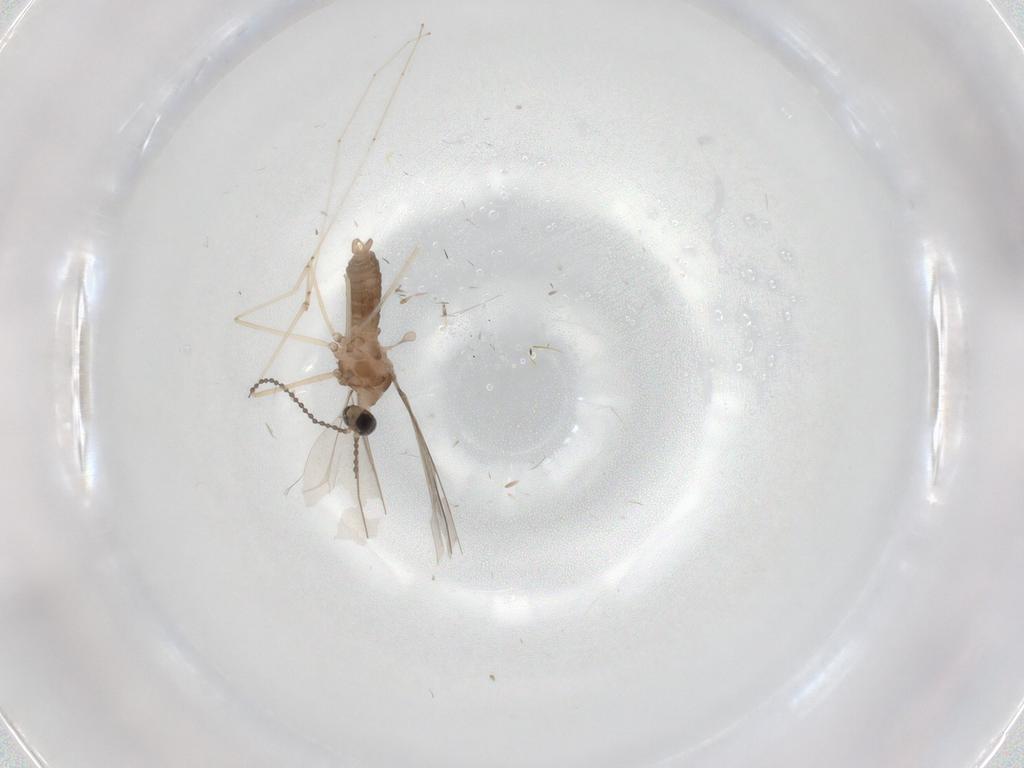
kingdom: Animalia
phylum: Arthropoda
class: Insecta
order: Diptera
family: Cecidomyiidae
